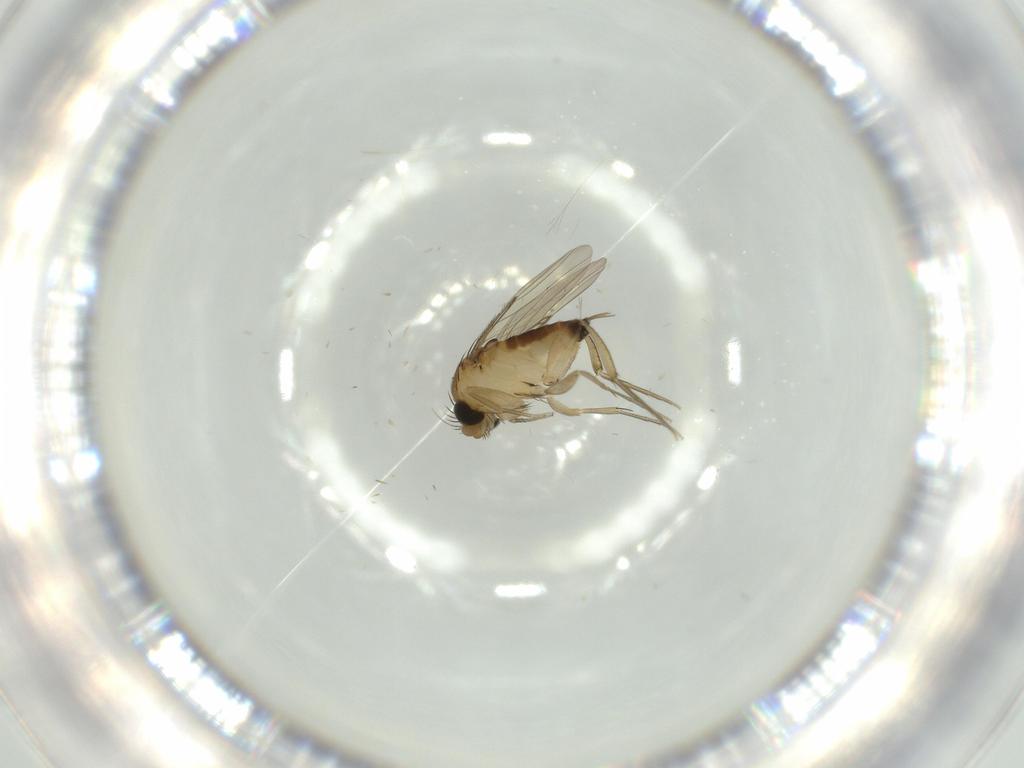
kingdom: Animalia
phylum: Arthropoda
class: Insecta
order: Diptera
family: Phoridae
